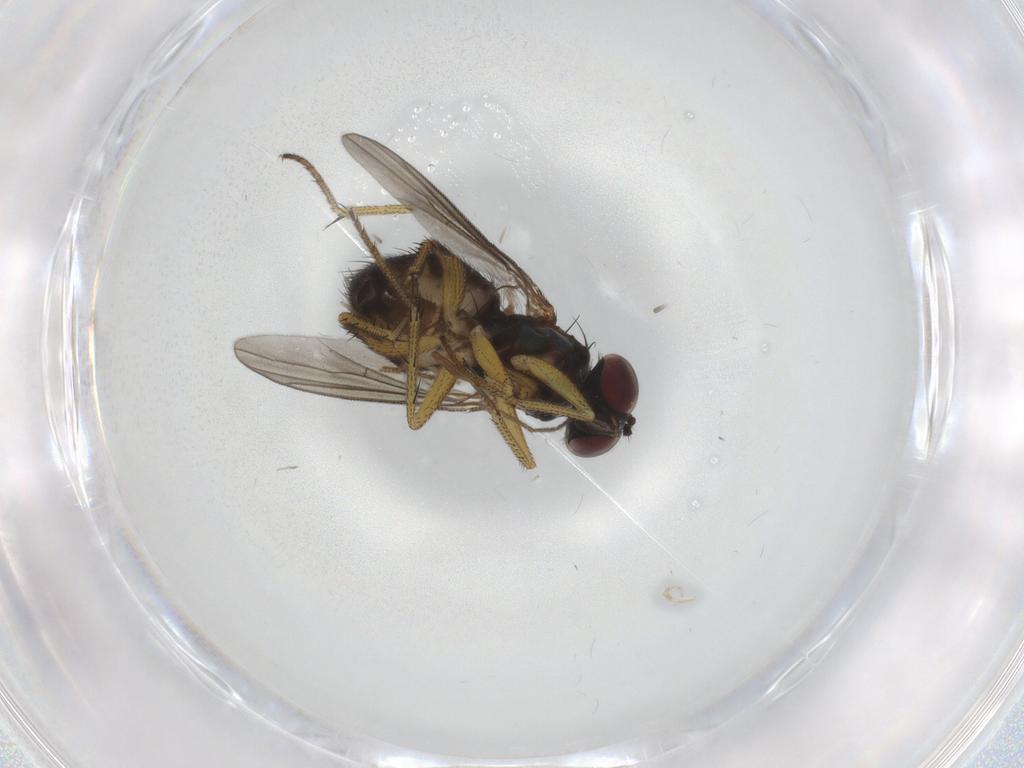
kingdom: Animalia
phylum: Arthropoda
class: Insecta
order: Diptera
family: Dolichopodidae
